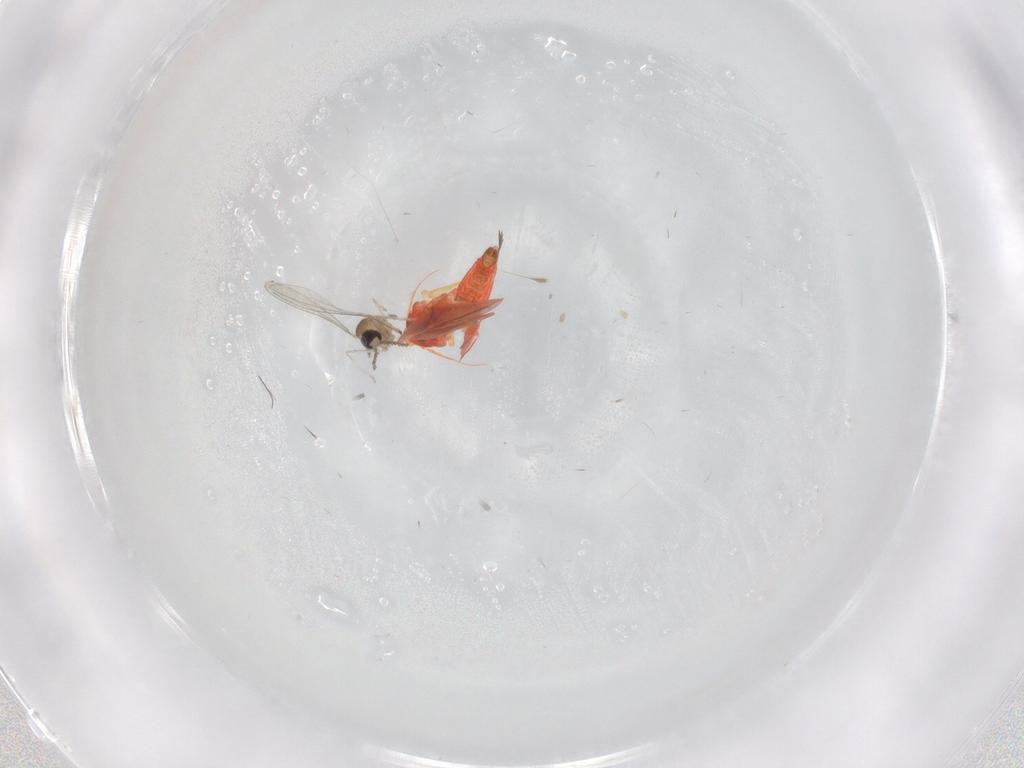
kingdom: Animalia
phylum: Arthropoda
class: Insecta
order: Hemiptera
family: Aleyrodidae
